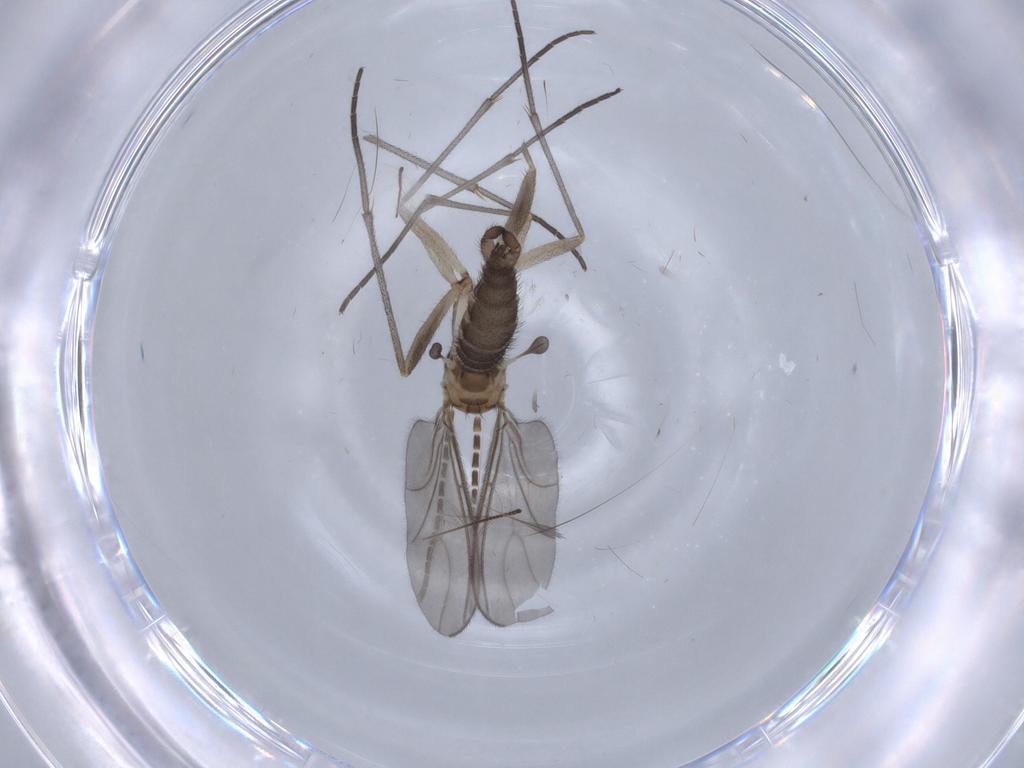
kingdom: Animalia
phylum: Arthropoda
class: Insecta
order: Diptera
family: Sciaridae
